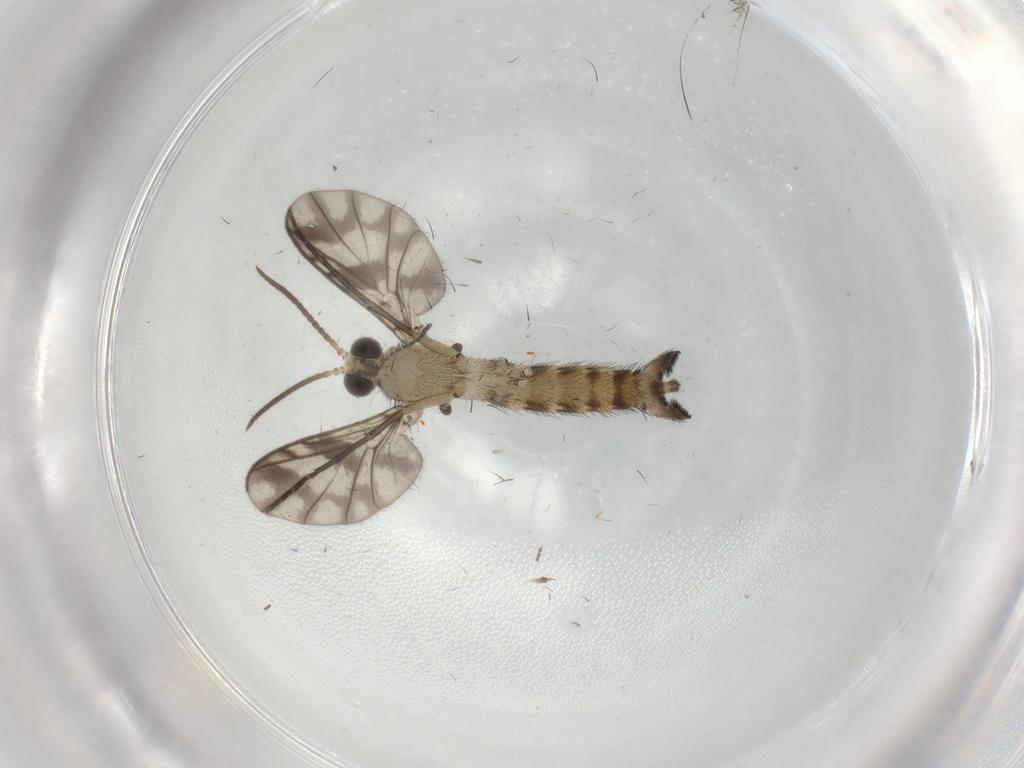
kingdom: Animalia
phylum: Arthropoda
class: Insecta
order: Diptera
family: Keroplatidae
